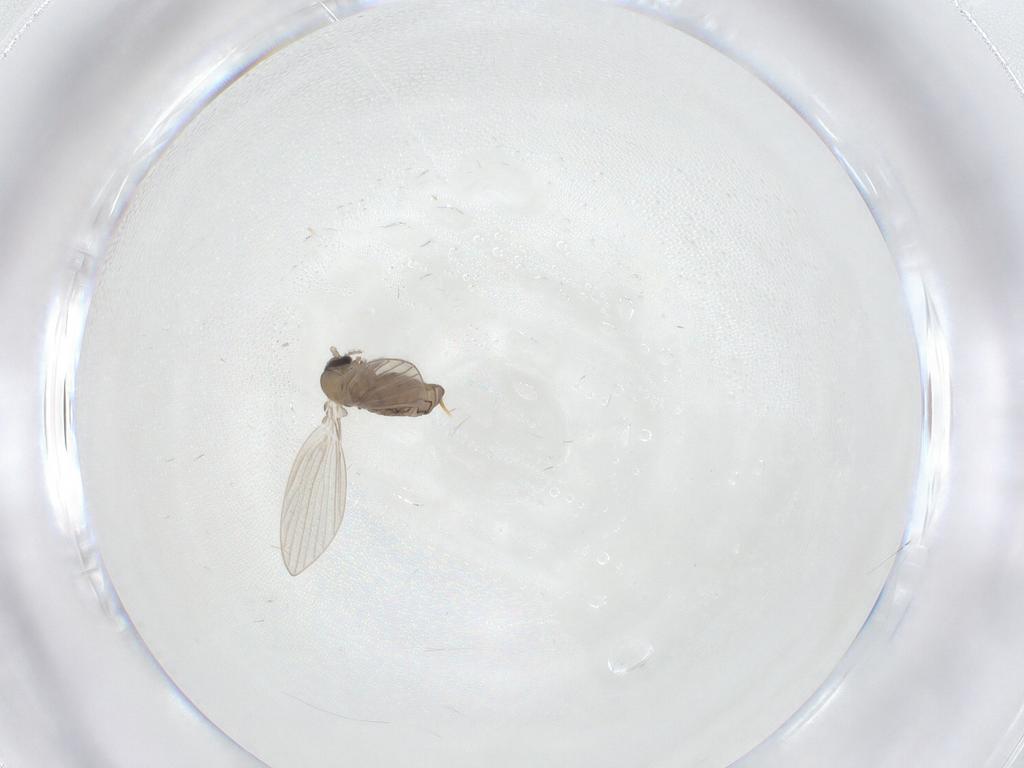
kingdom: Animalia
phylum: Arthropoda
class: Insecta
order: Diptera
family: Psychodidae
